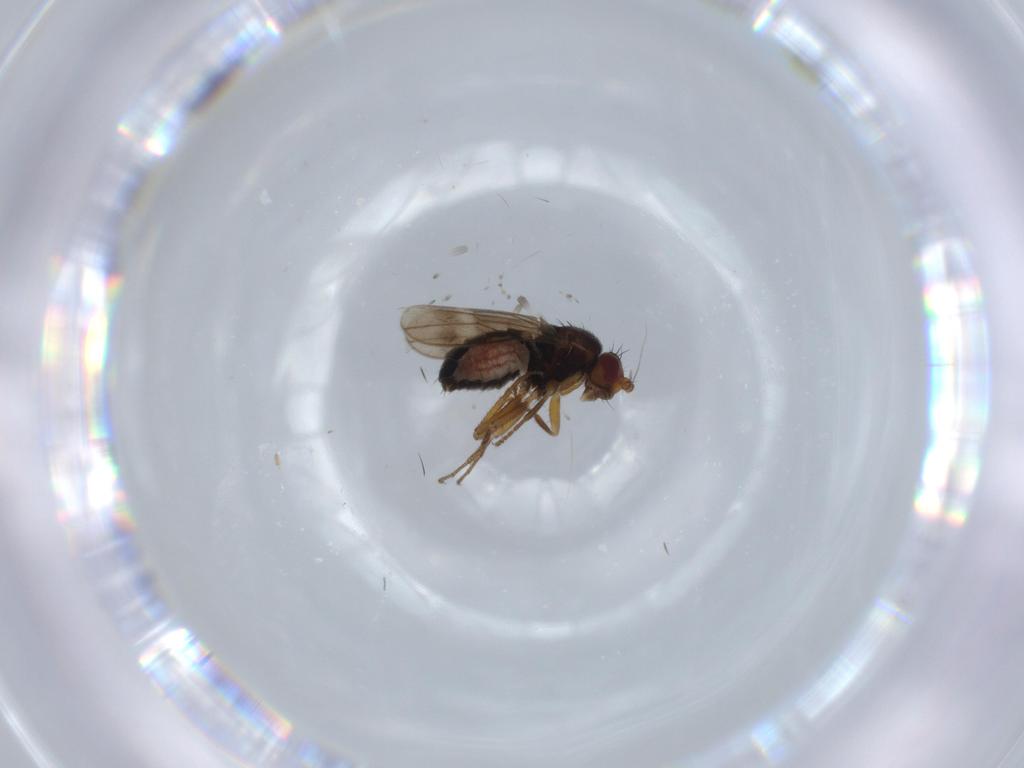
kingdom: Animalia
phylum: Arthropoda
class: Insecta
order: Diptera
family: Sphaeroceridae
